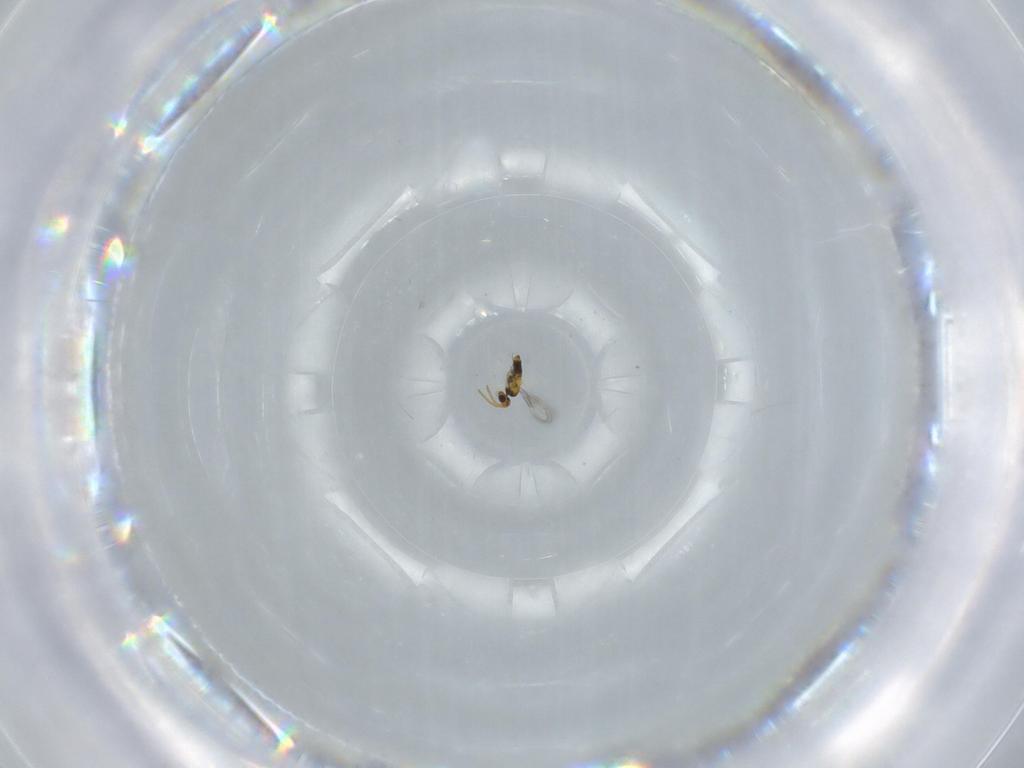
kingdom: Animalia
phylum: Arthropoda
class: Insecta
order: Hymenoptera
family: Aphelinidae
